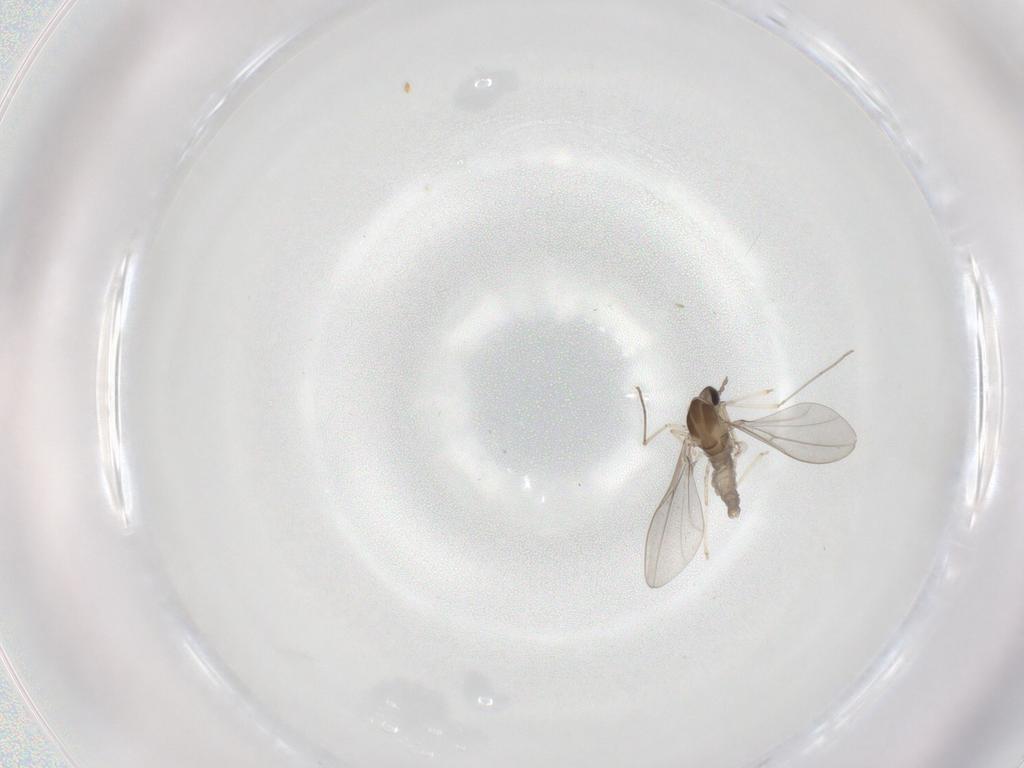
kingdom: Animalia
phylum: Arthropoda
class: Insecta
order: Diptera
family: Cecidomyiidae
